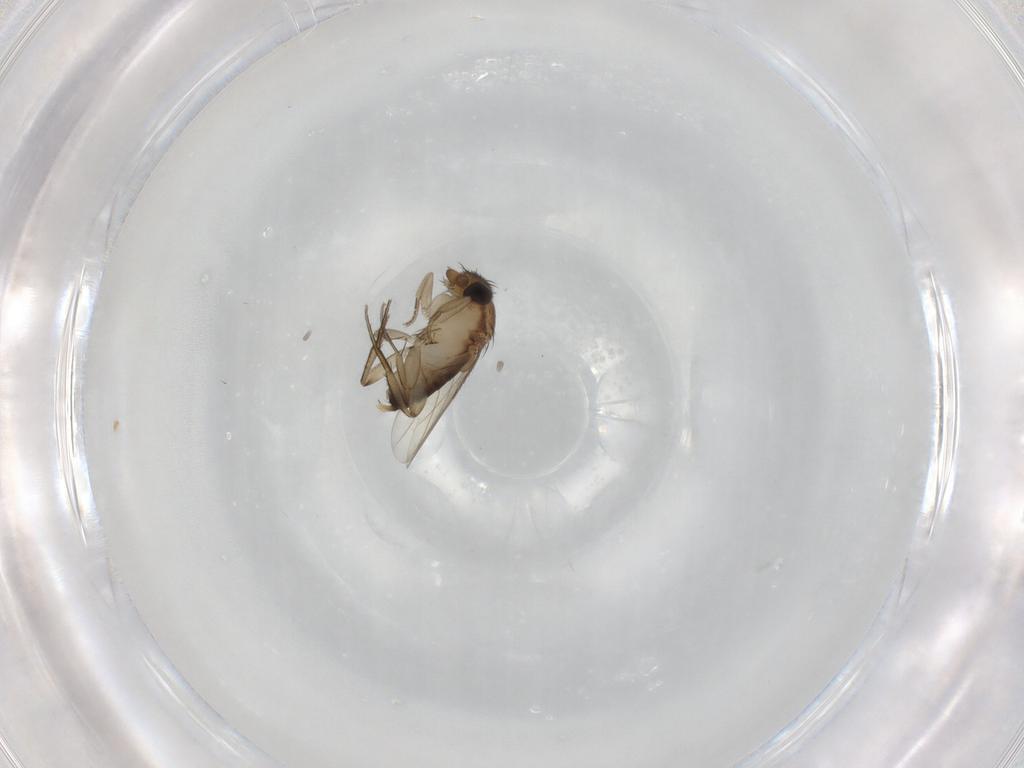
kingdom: Animalia
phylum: Arthropoda
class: Insecta
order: Diptera
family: Phoridae
